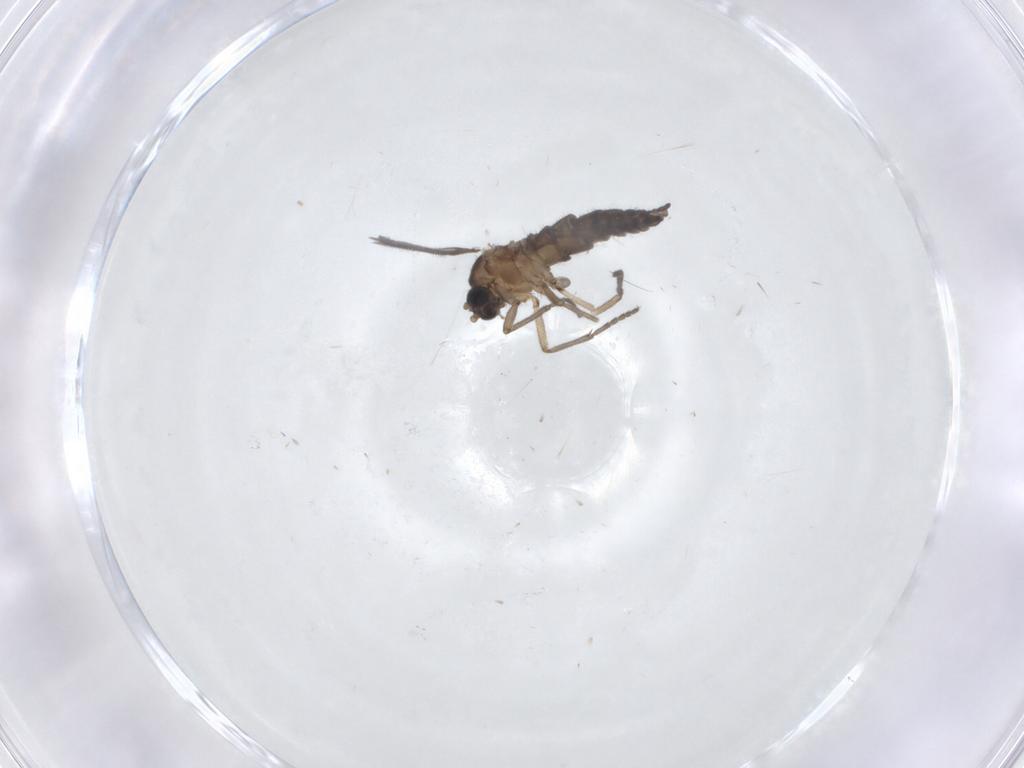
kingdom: Animalia
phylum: Arthropoda
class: Insecta
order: Diptera
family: Sciaridae
